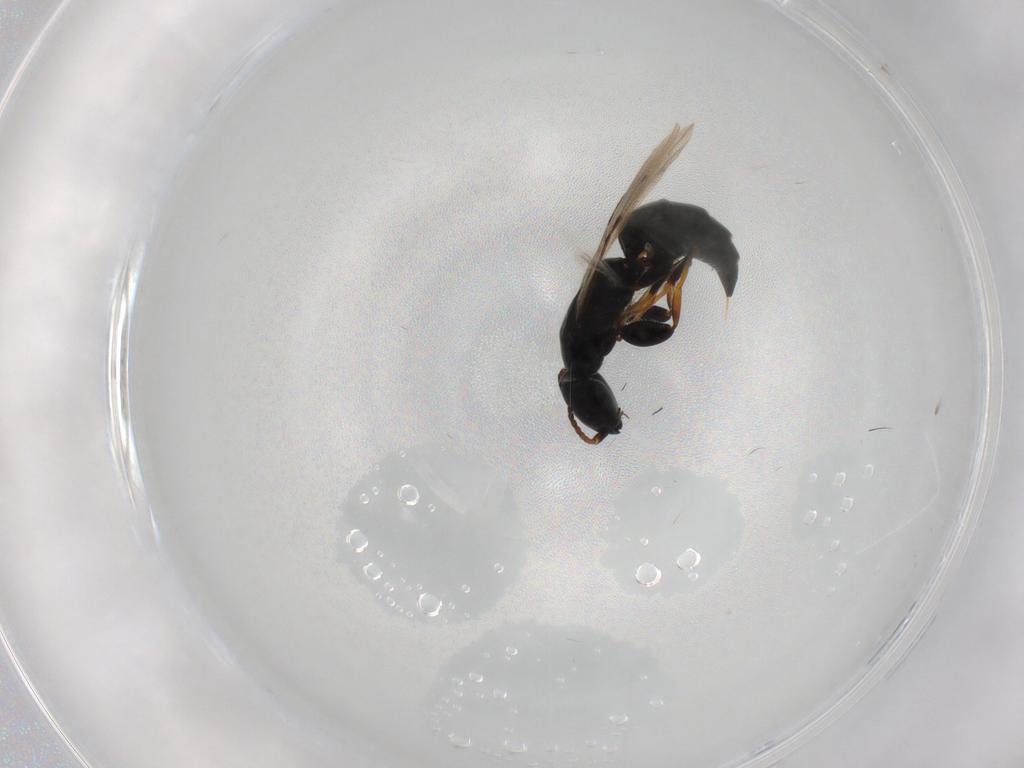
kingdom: Animalia
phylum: Arthropoda
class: Insecta
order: Hymenoptera
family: Bethylidae
